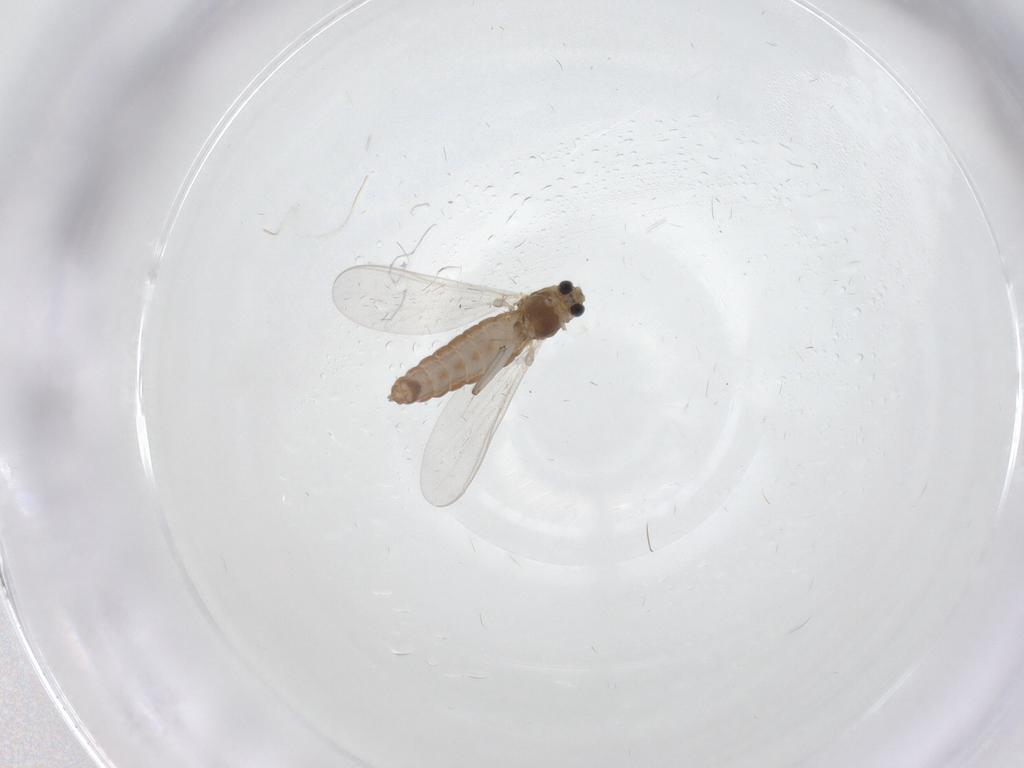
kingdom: Animalia
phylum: Arthropoda
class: Insecta
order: Diptera
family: Chironomidae
